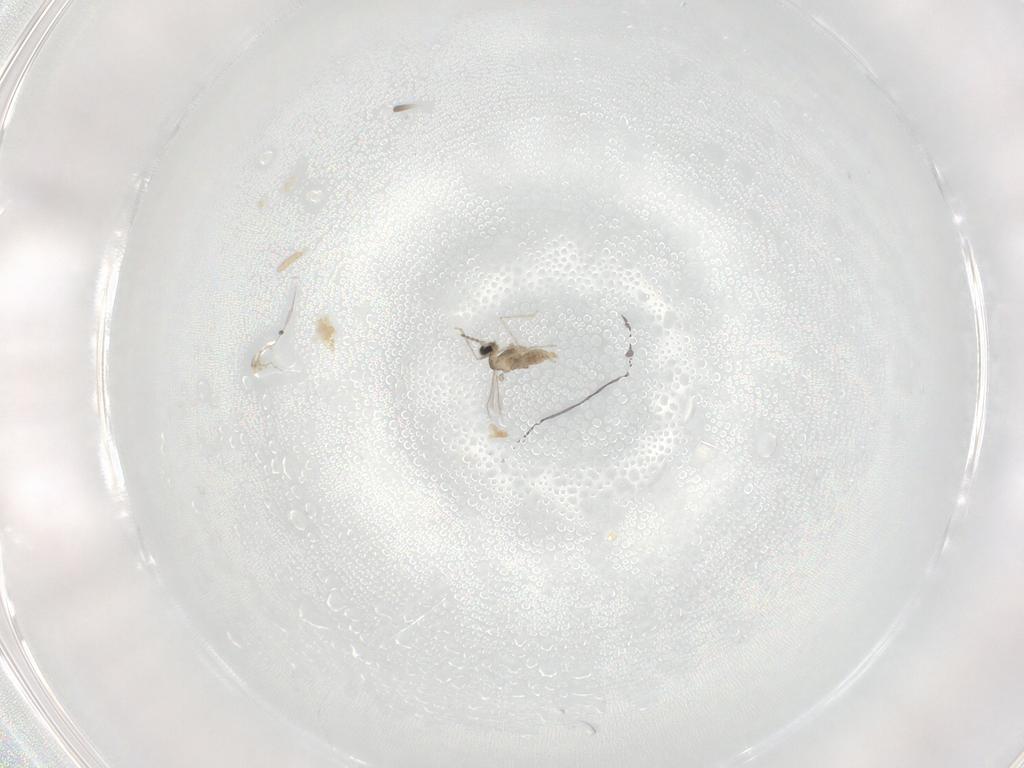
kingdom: Animalia
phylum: Arthropoda
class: Insecta
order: Diptera
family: Cecidomyiidae
